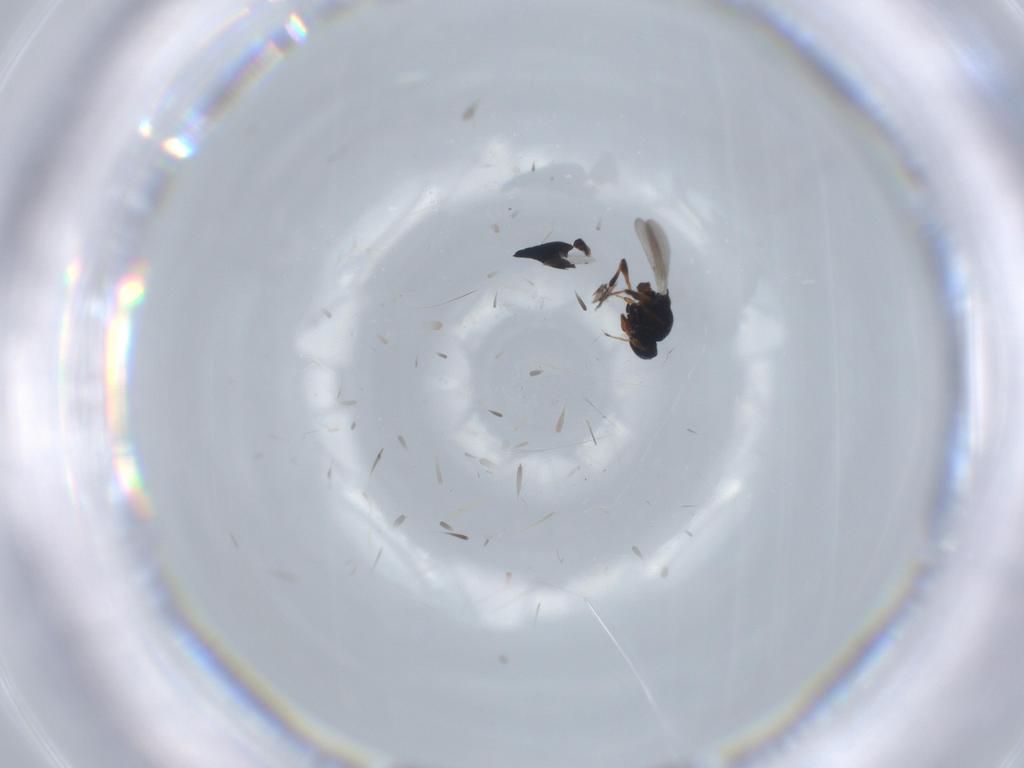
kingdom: Animalia
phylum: Arthropoda
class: Insecta
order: Hymenoptera
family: Platygastridae
